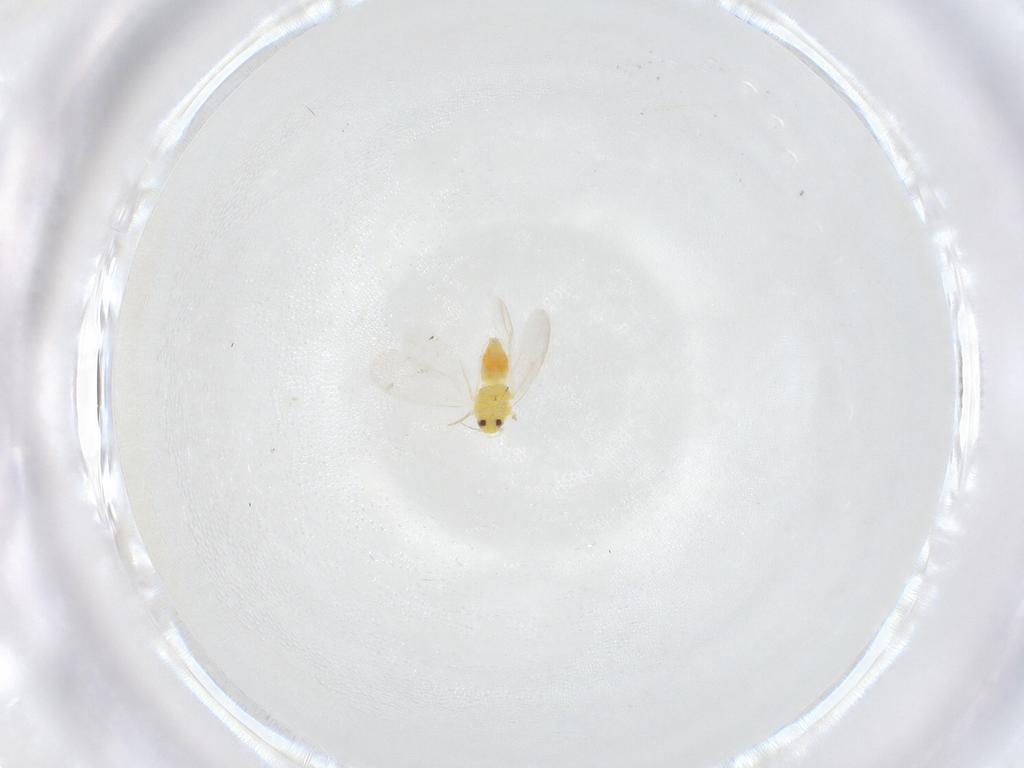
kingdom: Animalia
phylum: Arthropoda
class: Insecta
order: Hemiptera
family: Aleyrodidae
